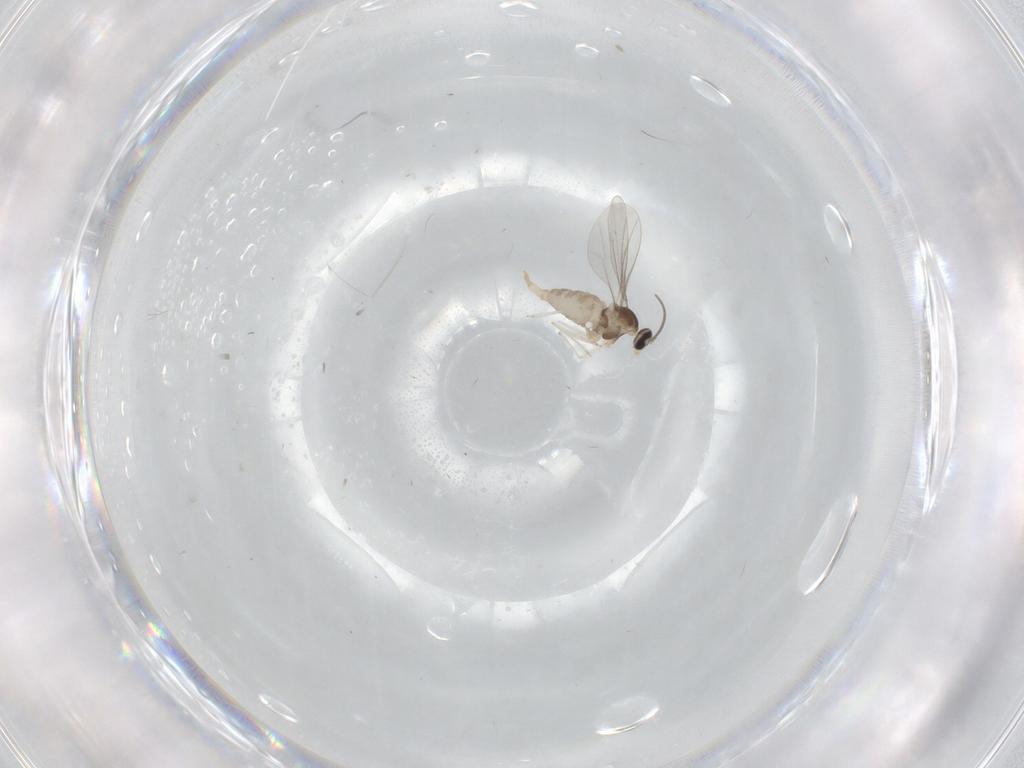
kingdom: Animalia
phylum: Arthropoda
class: Insecta
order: Diptera
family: Cecidomyiidae
